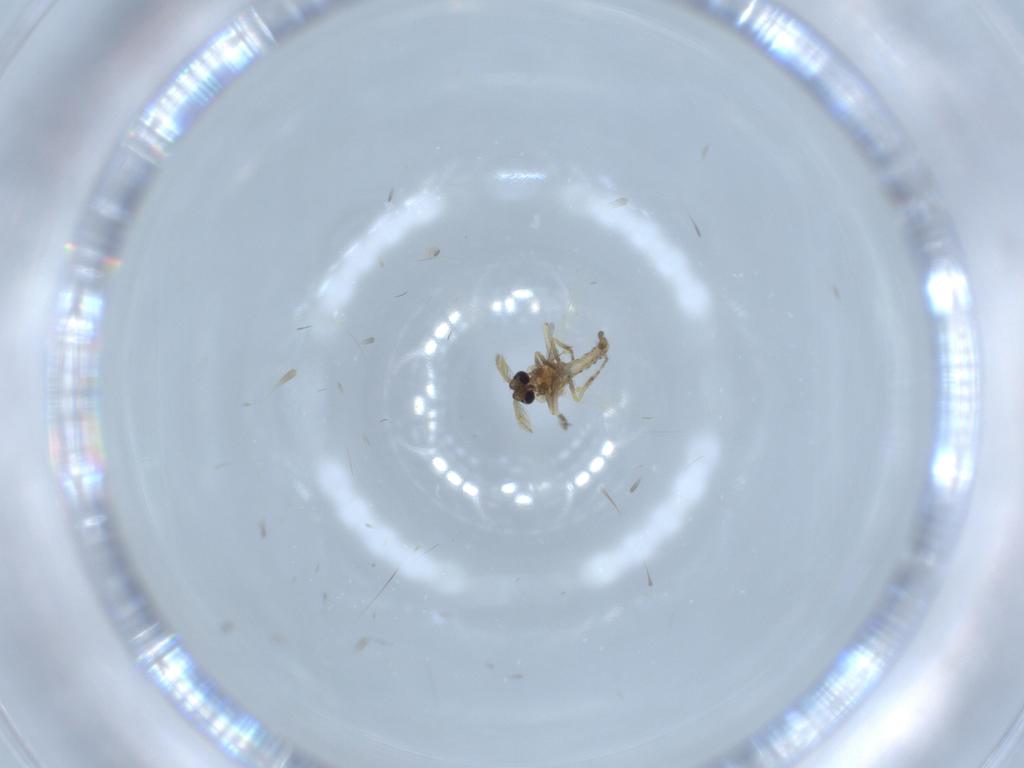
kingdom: Animalia
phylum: Arthropoda
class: Insecta
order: Diptera
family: Ceratopogonidae
